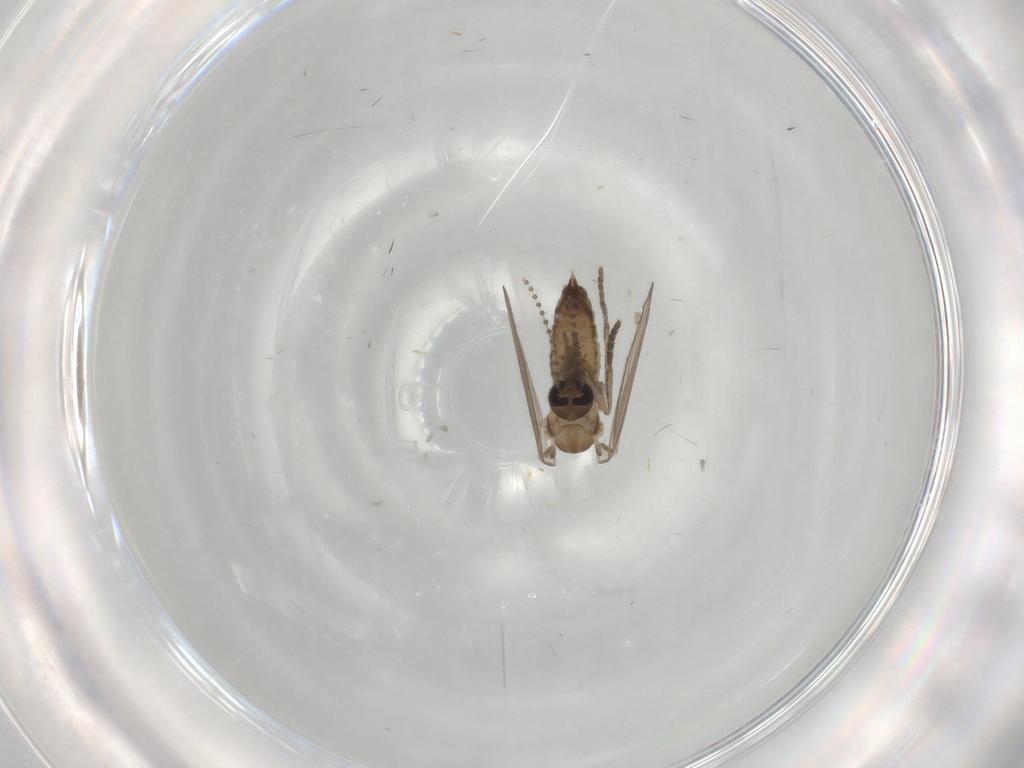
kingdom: Animalia
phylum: Arthropoda
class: Insecta
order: Diptera
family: Psychodidae
